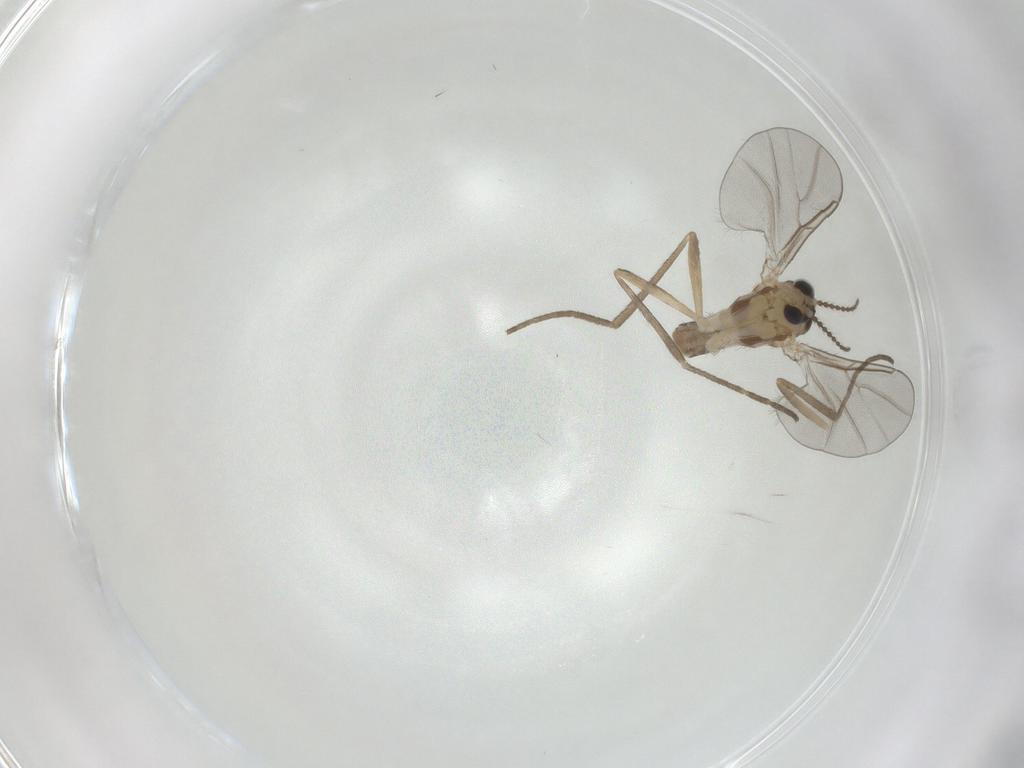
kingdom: Animalia
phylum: Arthropoda
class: Insecta
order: Diptera
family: Cecidomyiidae
